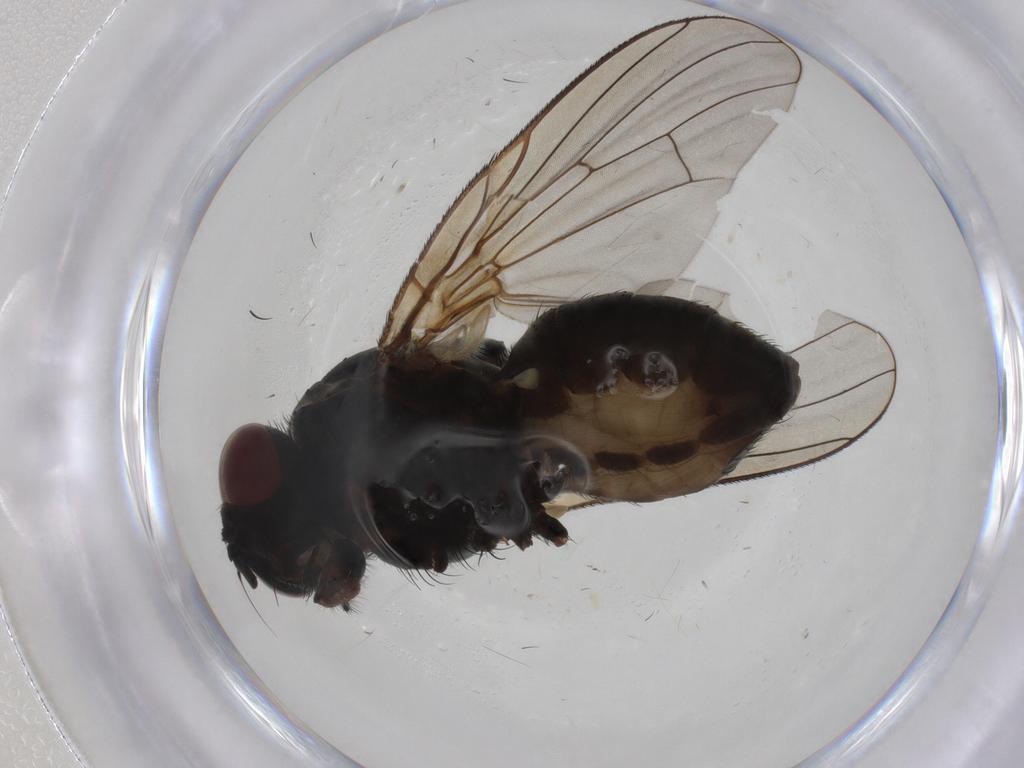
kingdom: Animalia
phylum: Arthropoda
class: Insecta
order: Diptera
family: Muscidae
